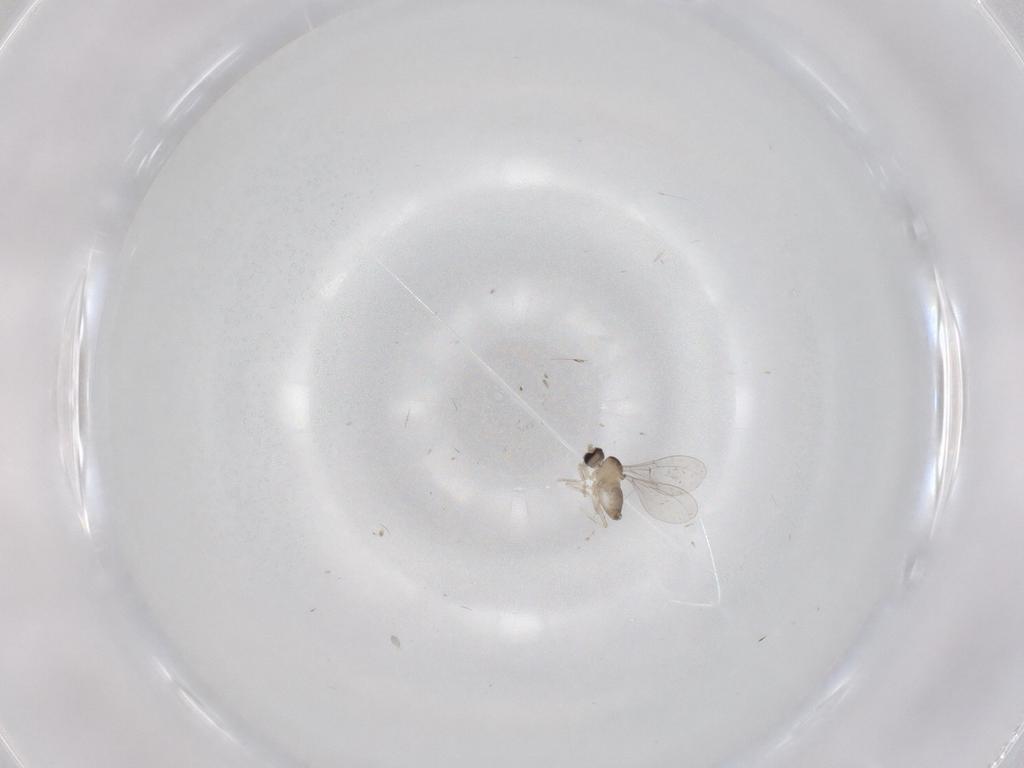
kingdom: Animalia
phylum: Arthropoda
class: Insecta
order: Diptera
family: Cecidomyiidae
